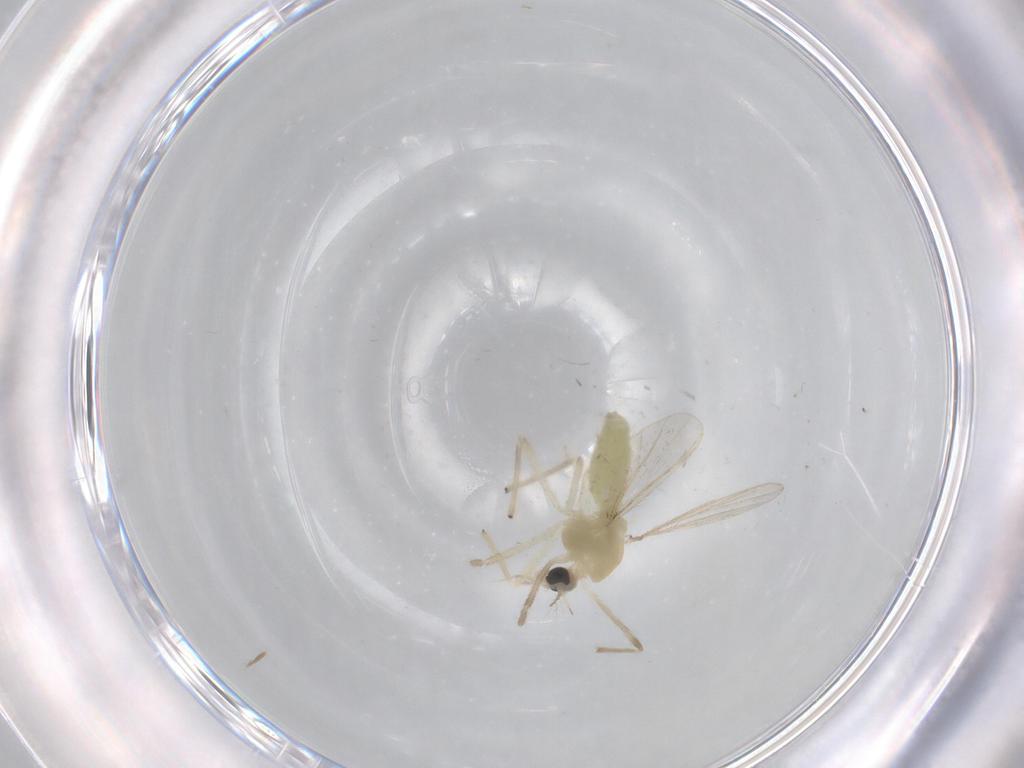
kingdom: Animalia
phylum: Arthropoda
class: Insecta
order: Diptera
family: Chironomidae
